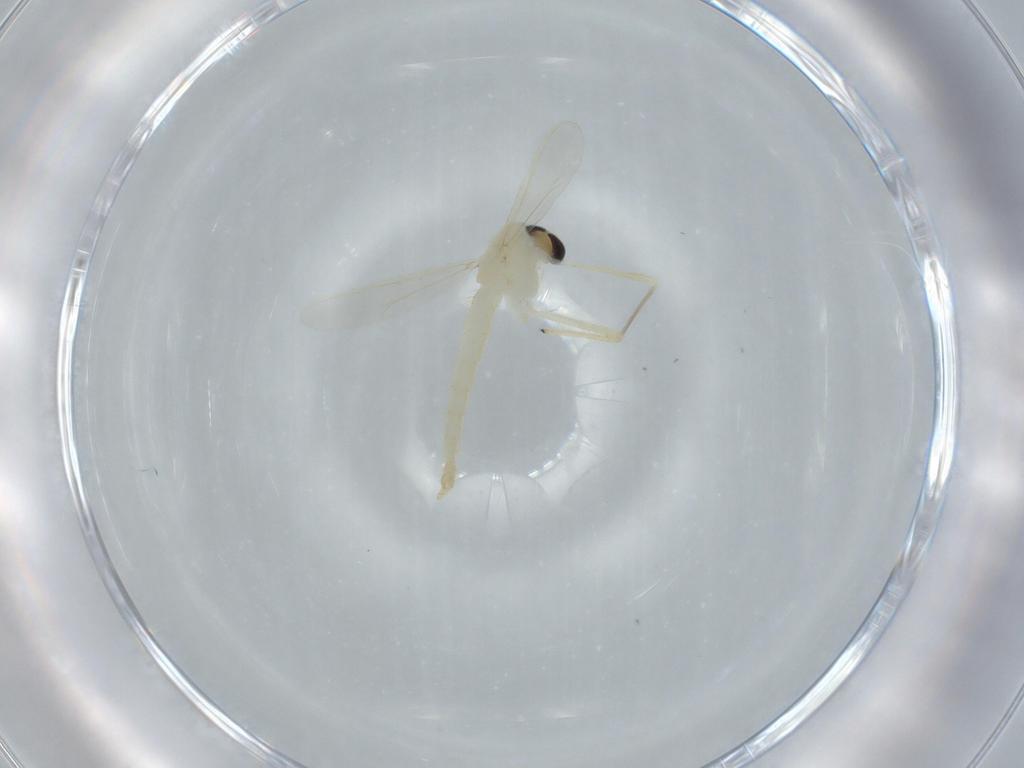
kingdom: Animalia
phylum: Arthropoda
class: Insecta
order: Diptera
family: Chironomidae
